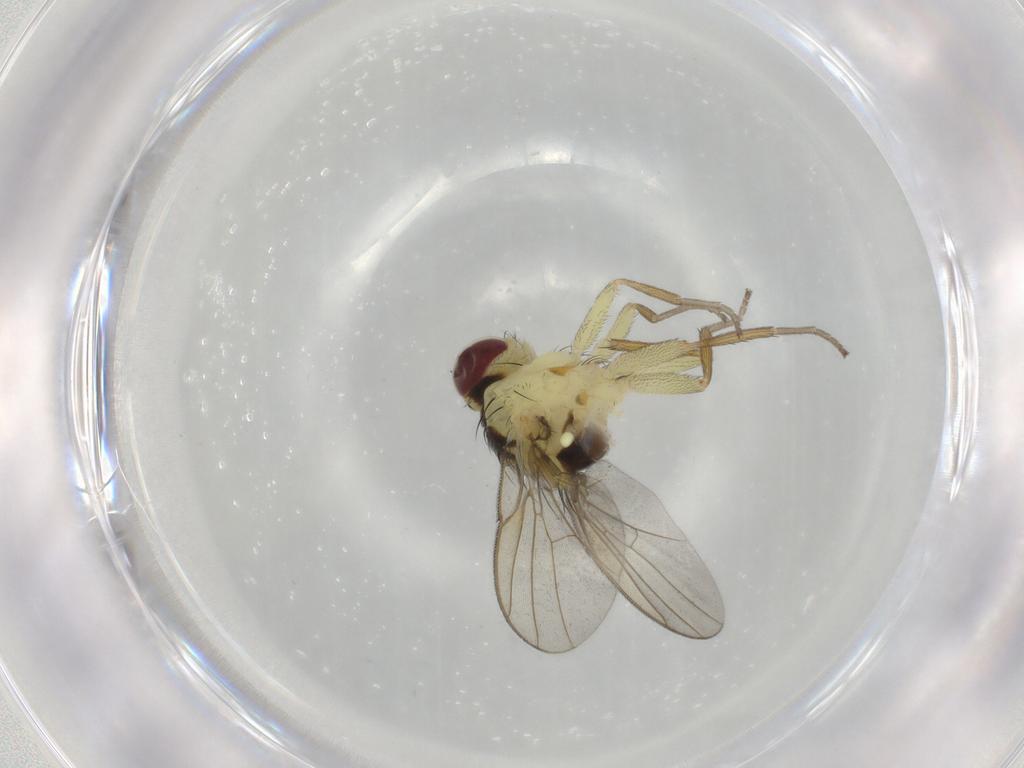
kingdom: Animalia
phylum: Arthropoda
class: Insecta
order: Diptera
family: Agromyzidae
